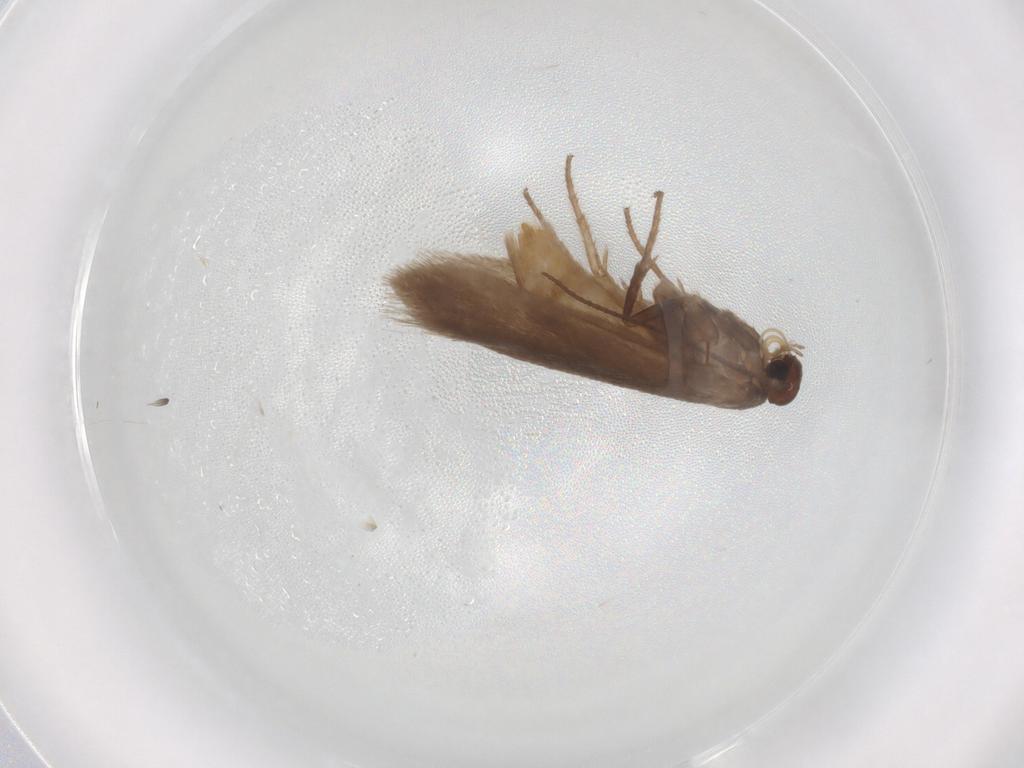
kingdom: Animalia
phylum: Arthropoda
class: Insecta
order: Lepidoptera
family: Limacodidae
